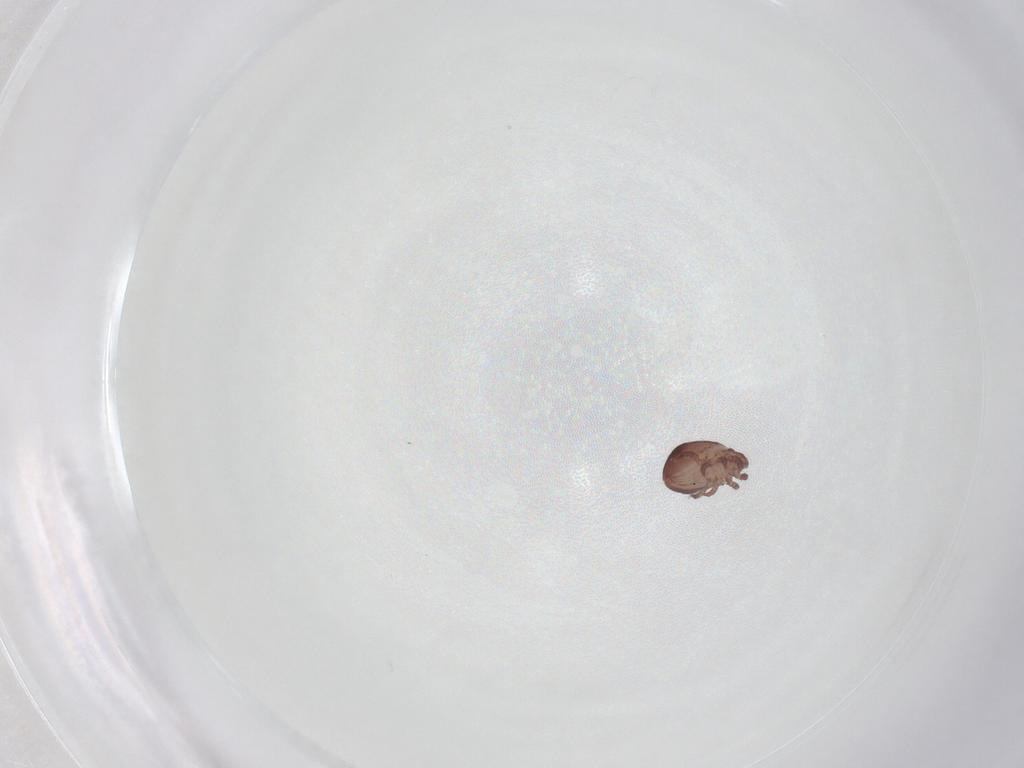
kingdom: Animalia
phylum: Arthropoda
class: Arachnida
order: Sarcoptiformes
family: Trhypochthoniidae
